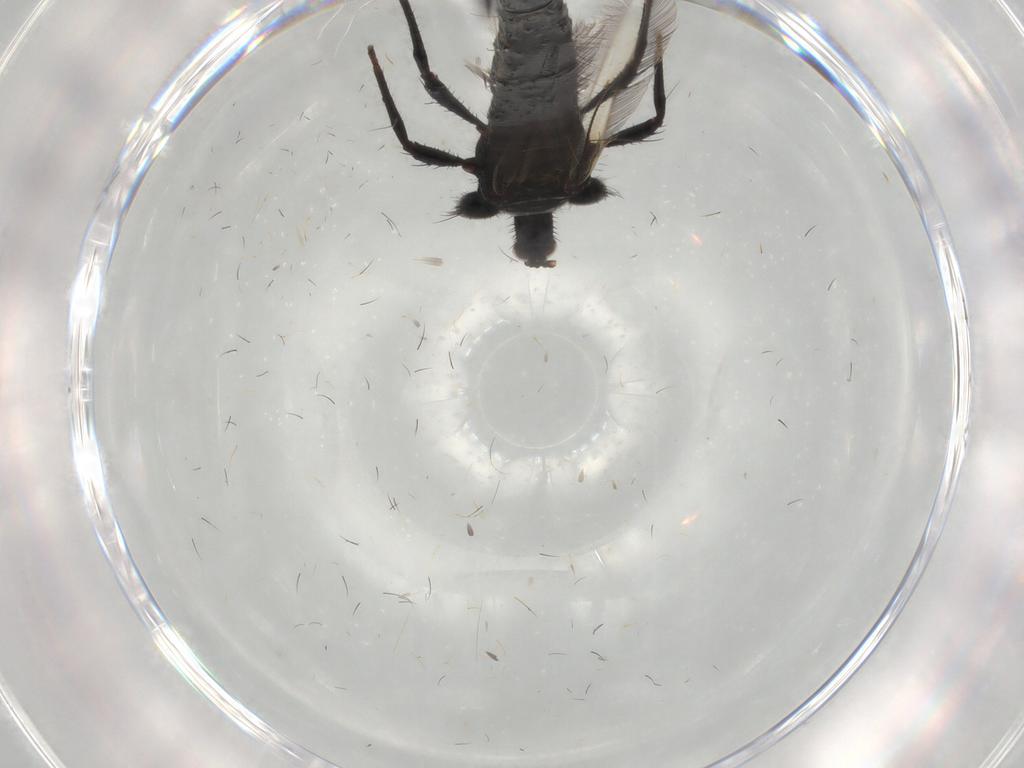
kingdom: Animalia
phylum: Arthropoda
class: Insecta
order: Thysanoptera
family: Phlaeothripidae
